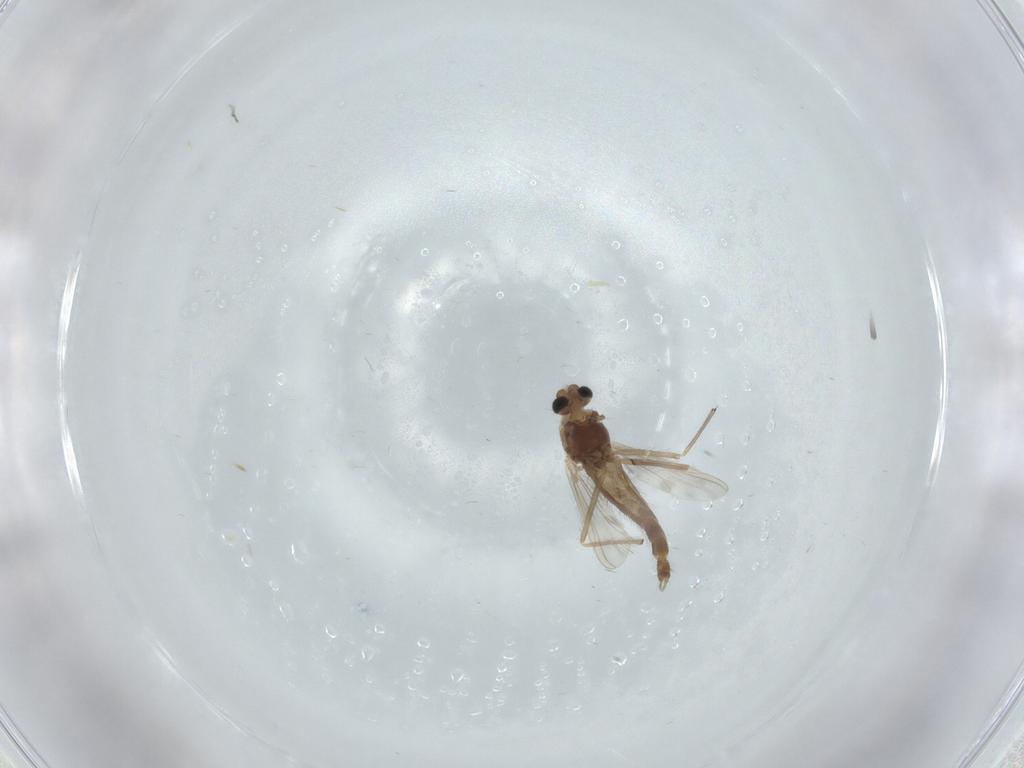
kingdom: Animalia
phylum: Arthropoda
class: Insecta
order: Diptera
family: Chironomidae
